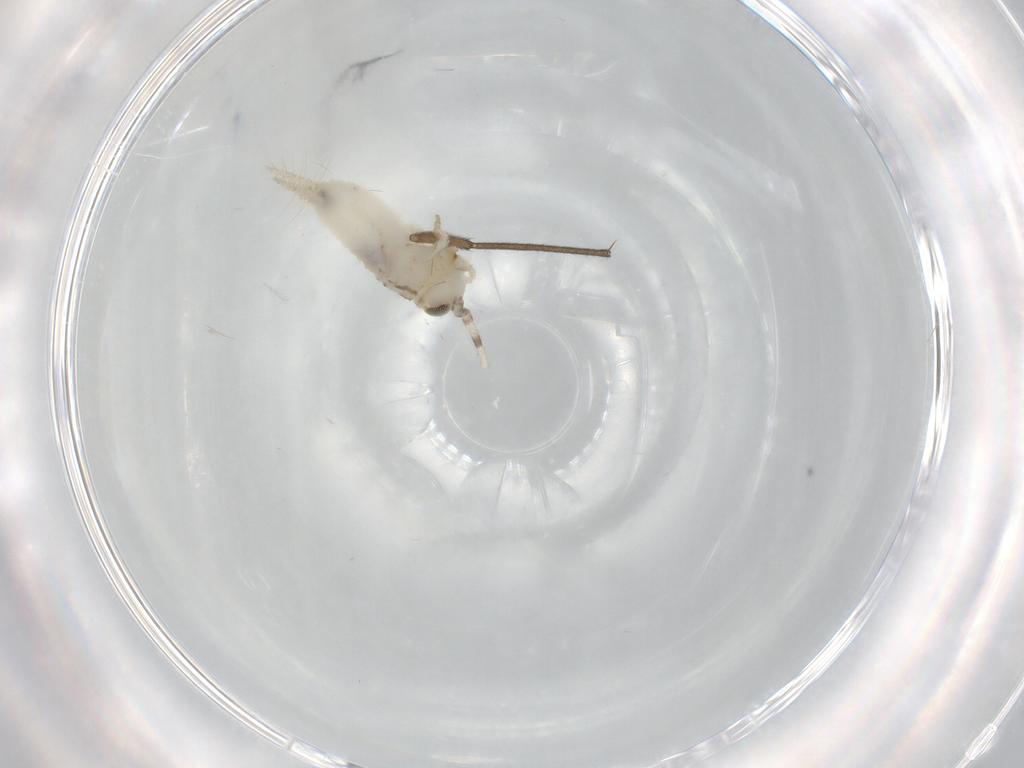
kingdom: Animalia
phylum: Arthropoda
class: Insecta
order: Orthoptera
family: Trigonidiidae
